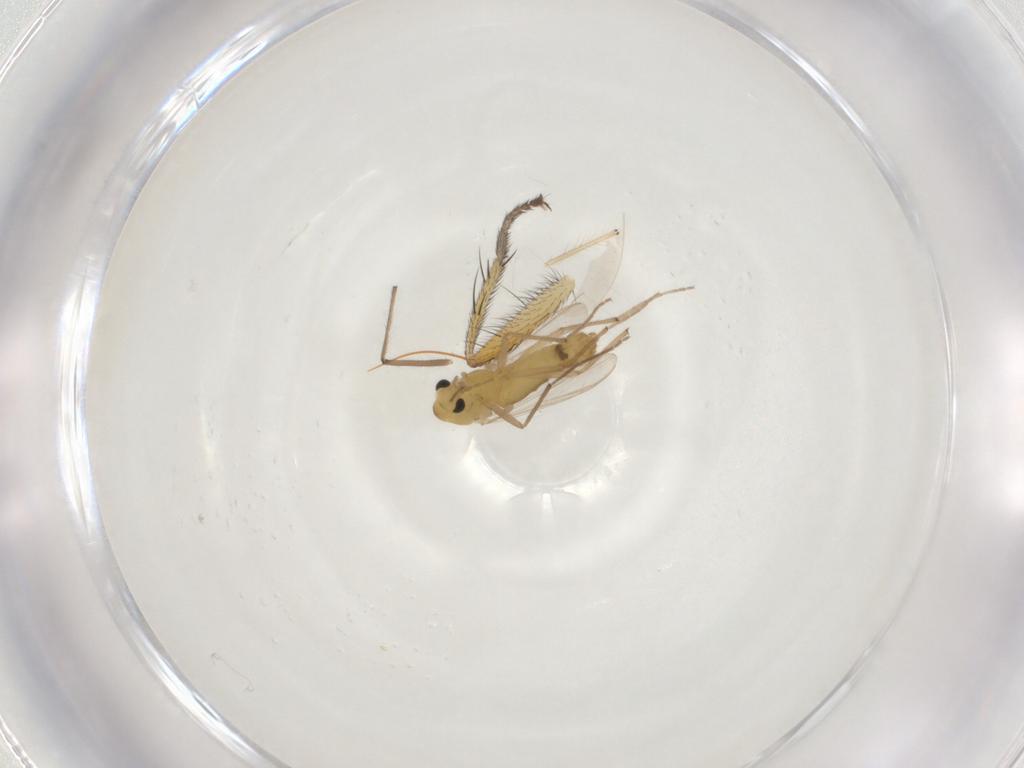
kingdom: Animalia
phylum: Arthropoda
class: Insecta
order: Diptera
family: Chironomidae
